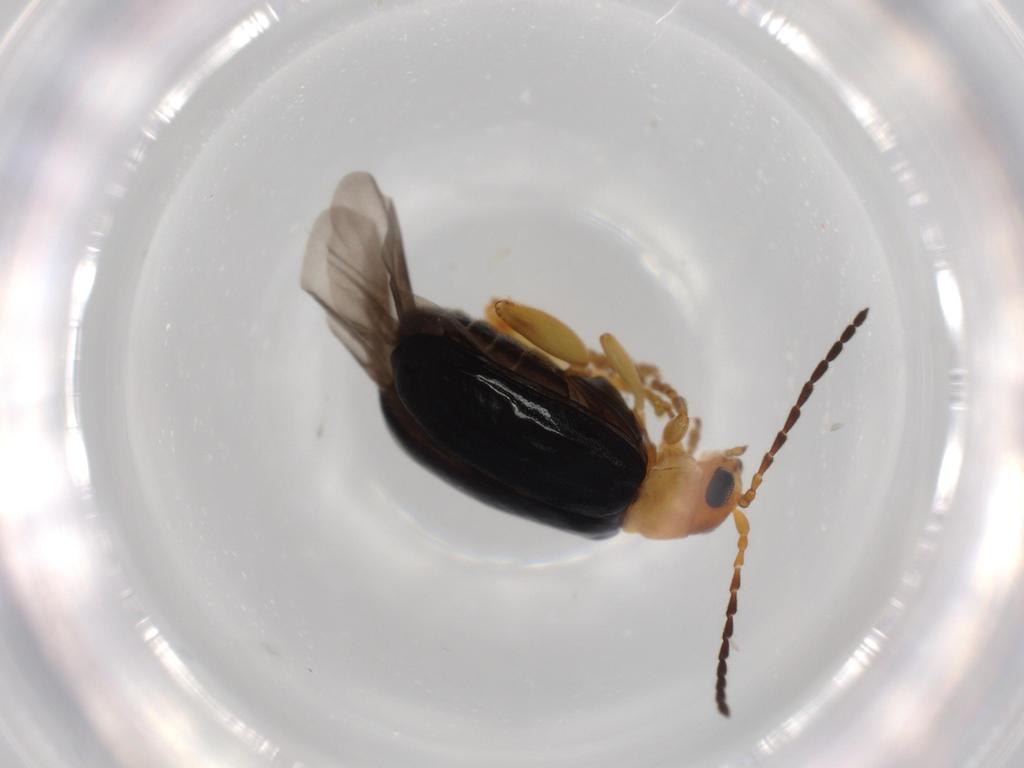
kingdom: Animalia
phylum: Arthropoda
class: Insecta
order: Coleoptera
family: Chrysomelidae
